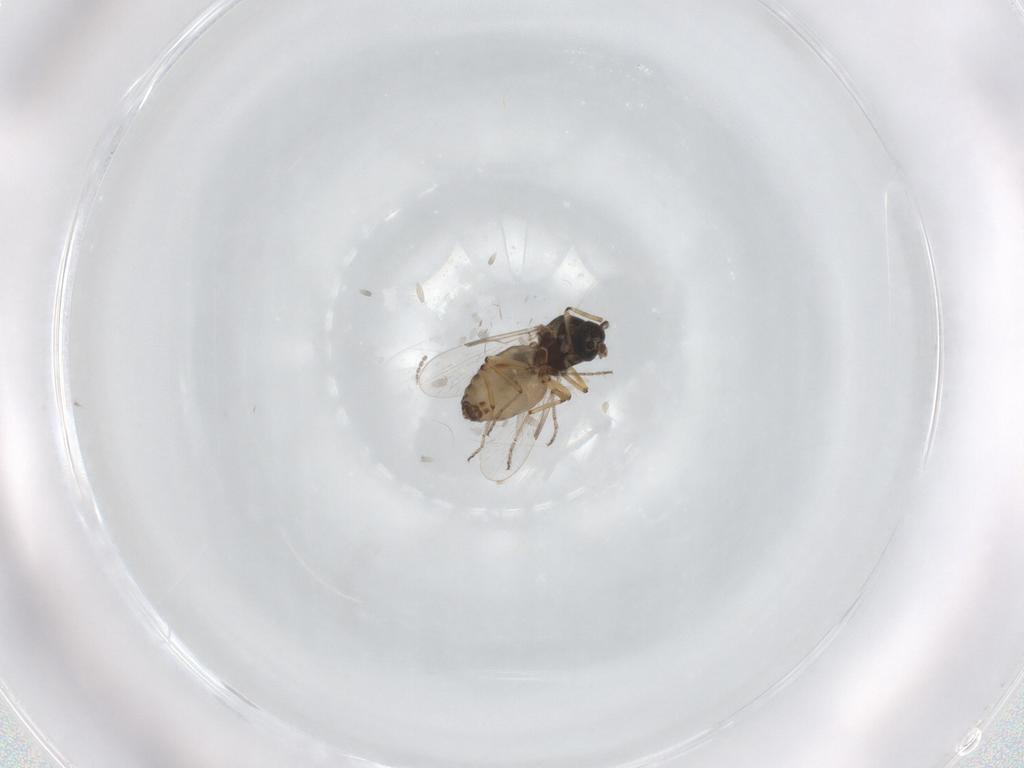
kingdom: Animalia
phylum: Arthropoda
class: Insecta
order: Diptera
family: Ceratopogonidae
